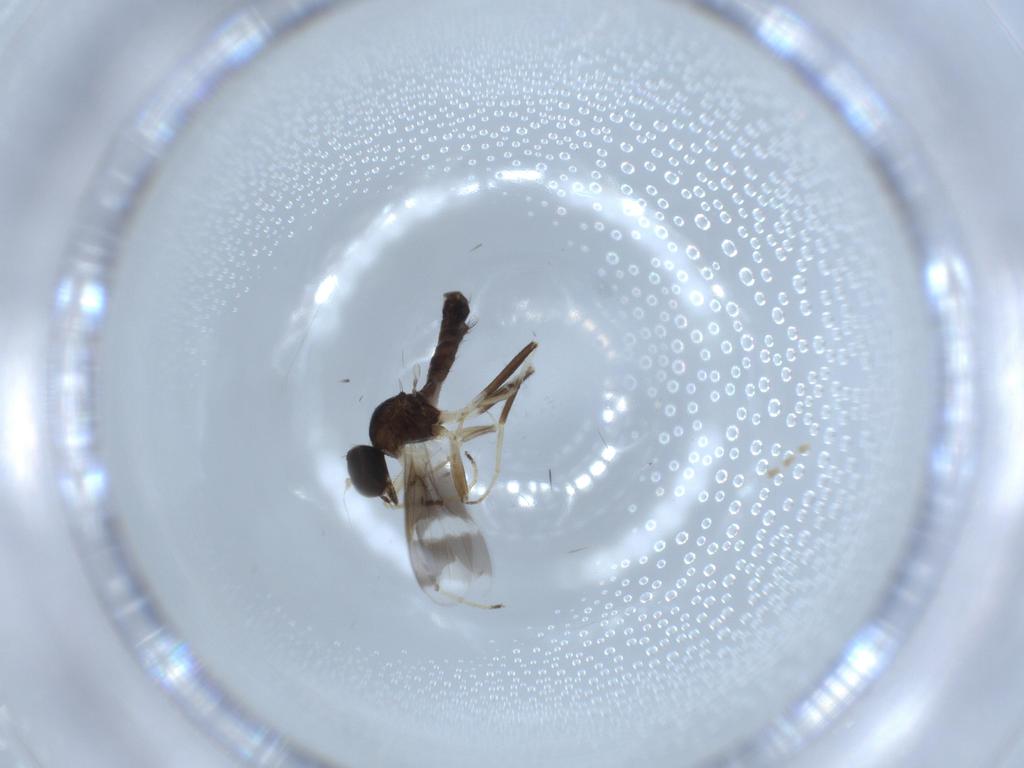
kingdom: Animalia
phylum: Arthropoda
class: Insecta
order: Diptera
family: Hybotidae
